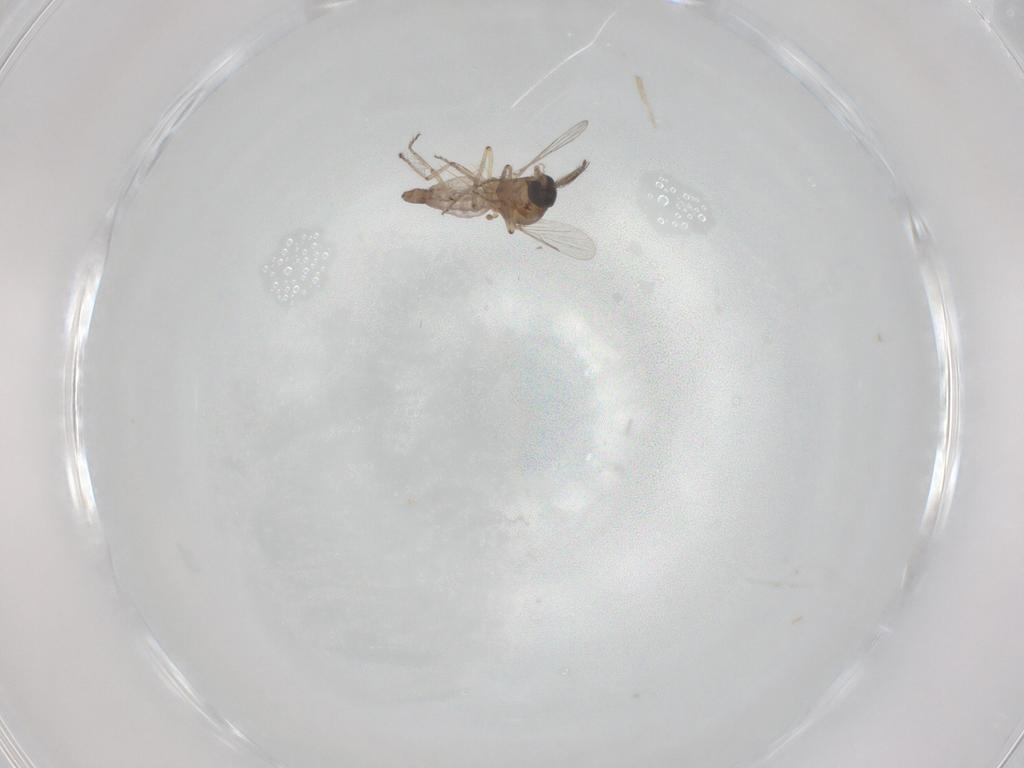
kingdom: Animalia
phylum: Arthropoda
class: Insecta
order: Diptera
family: Ceratopogonidae
